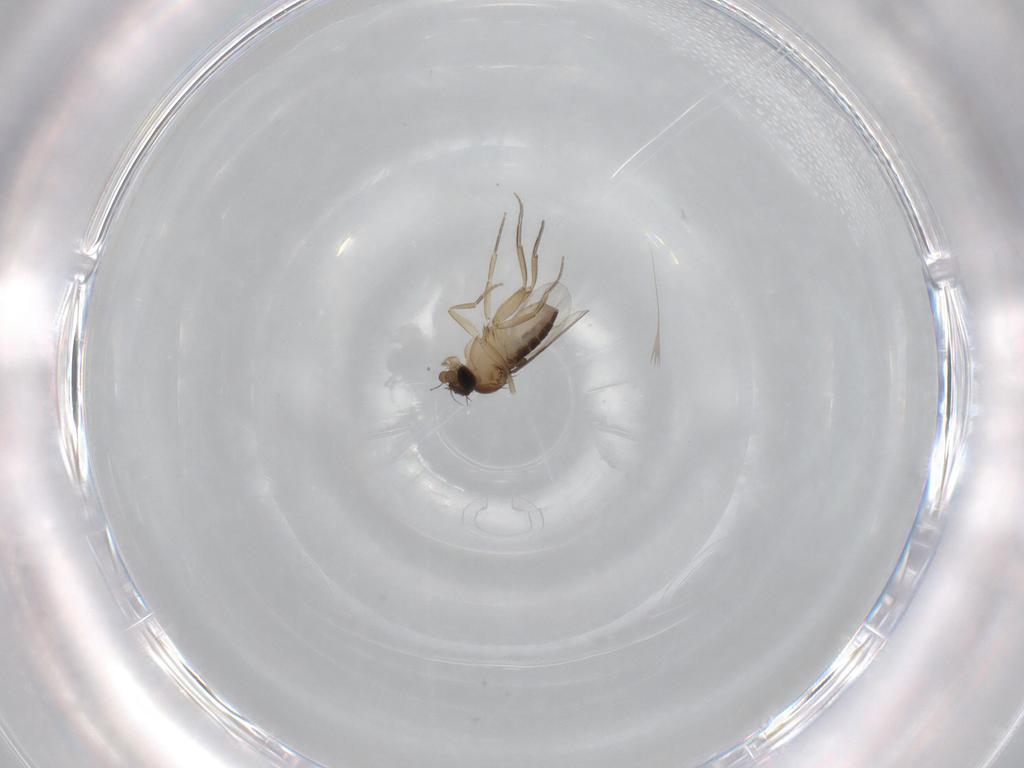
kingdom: Animalia
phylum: Arthropoda
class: Insecta
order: Diptera
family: Phoridae
